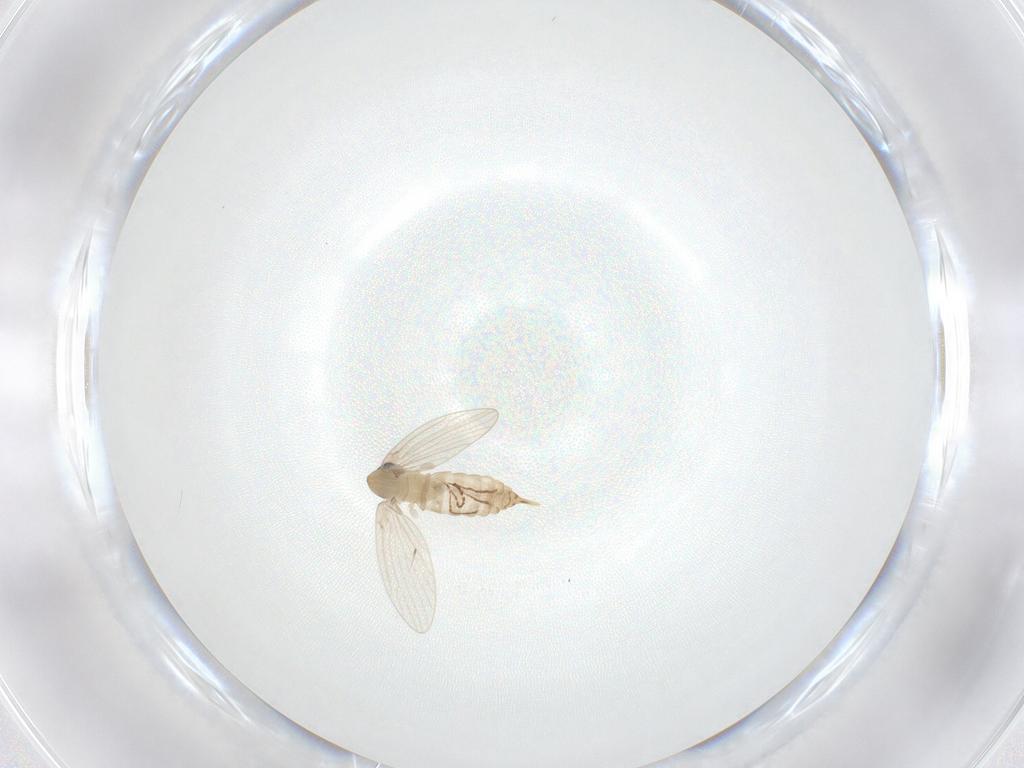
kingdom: Animalia
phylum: Arthropoda
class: Insecta
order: Diptera
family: Psychodidae
